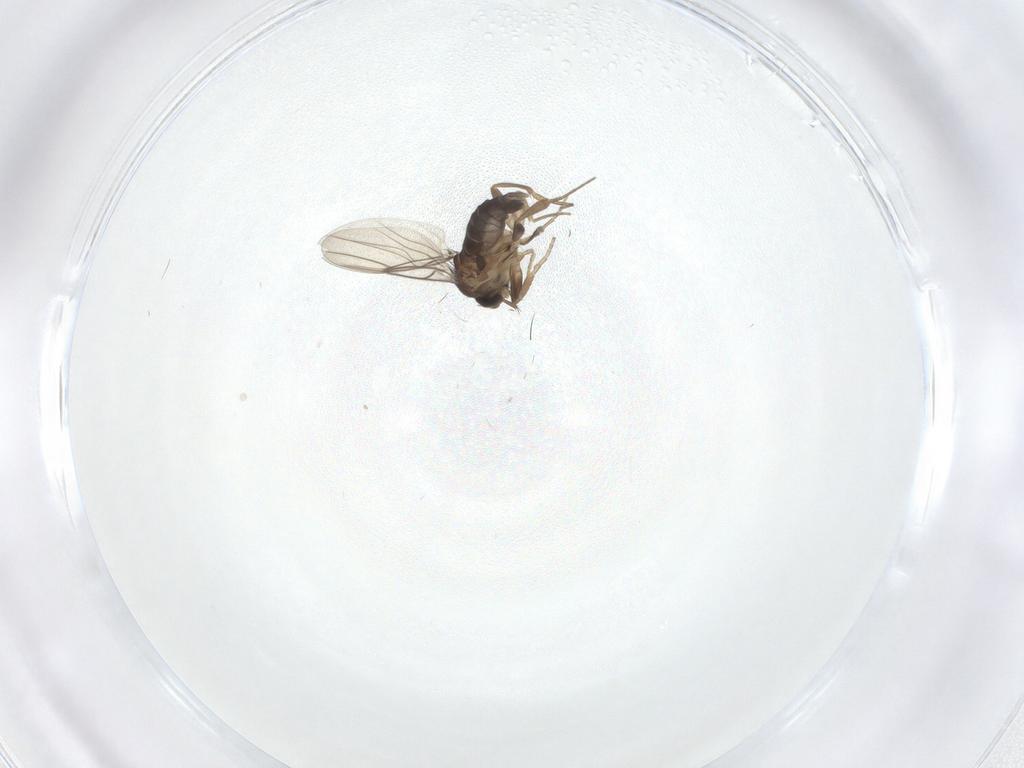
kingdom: Animalia
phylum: Arthropoda
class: Insecta
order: Diptera
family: Phoridae
